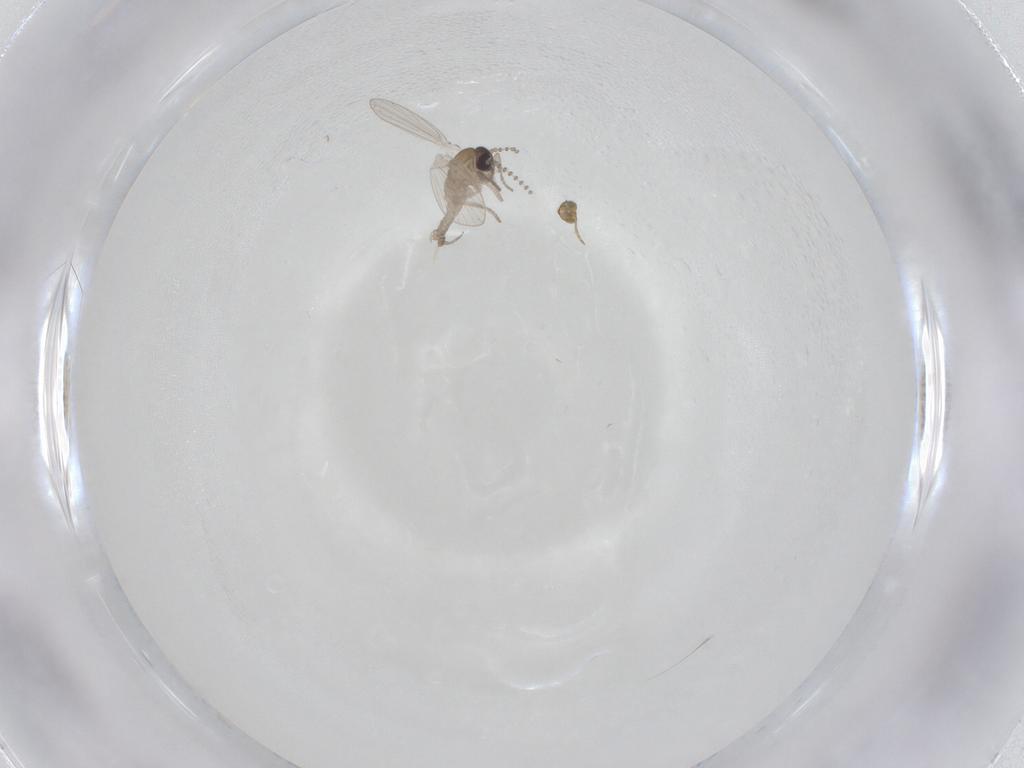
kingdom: Animalia
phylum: Arthropoda
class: Insecta
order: Diptera
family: Psychodidae
